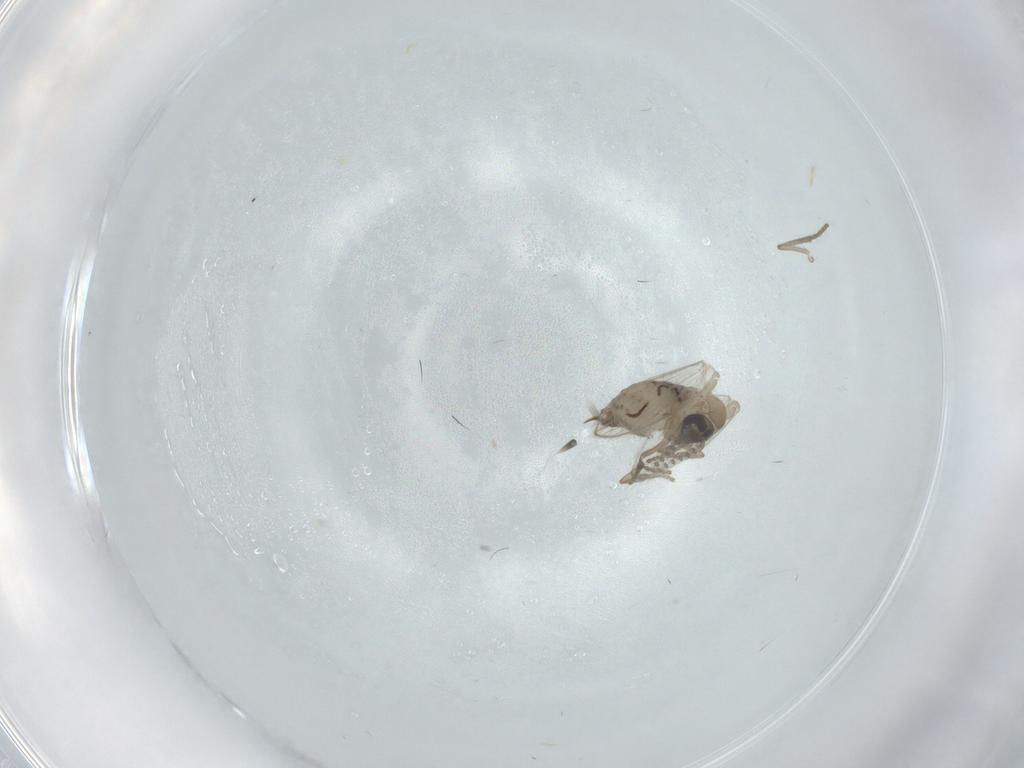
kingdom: Animalia
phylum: Arthropoda
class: Insecta
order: Diptera
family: Psychodidae
